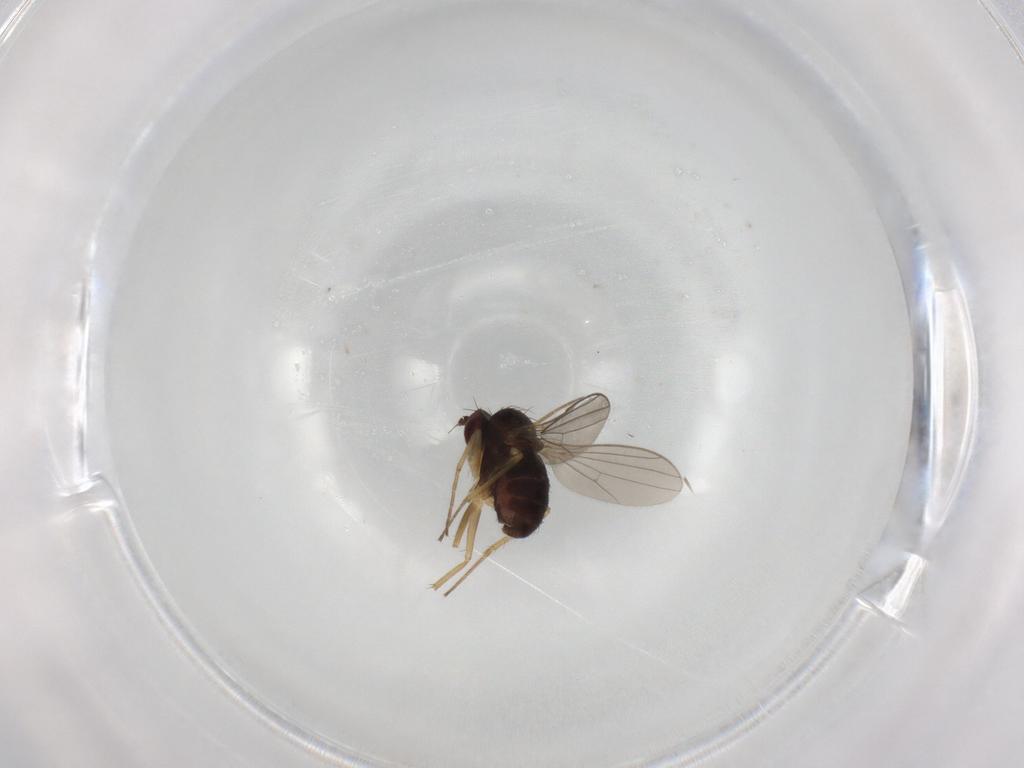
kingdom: Animalia
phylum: Arthropoda
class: Insecta
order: Diptera
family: Dolichopodidae
